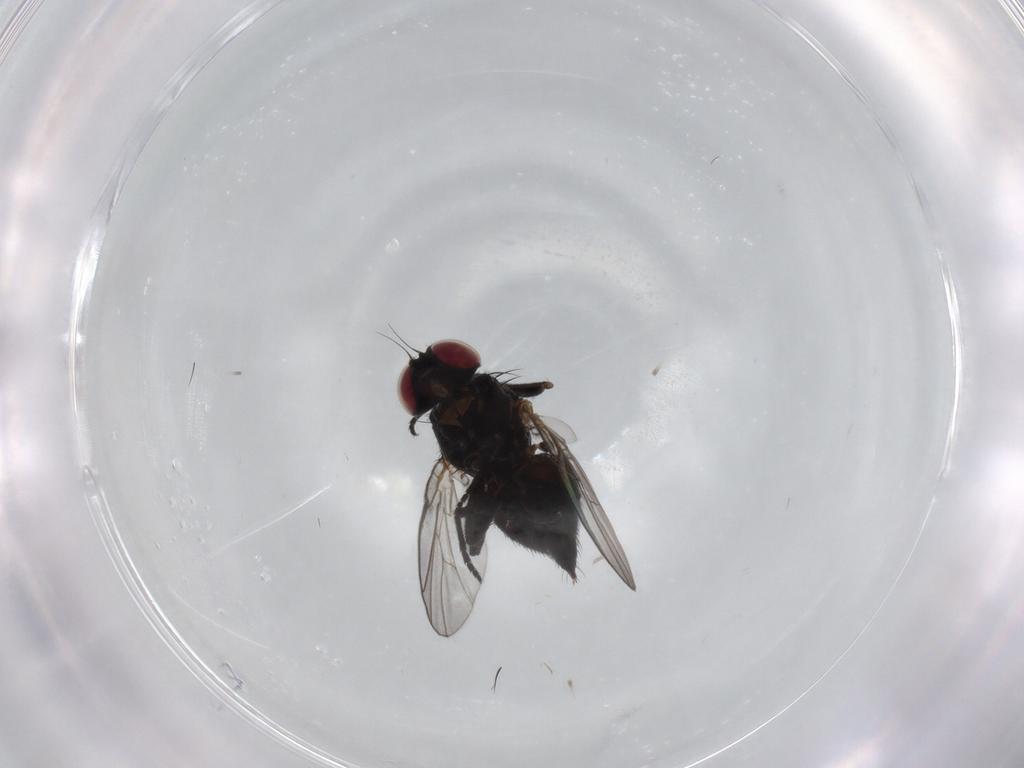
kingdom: Animalia
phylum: Arthropoda
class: Insecta
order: Diptera
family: Agromyzidae
